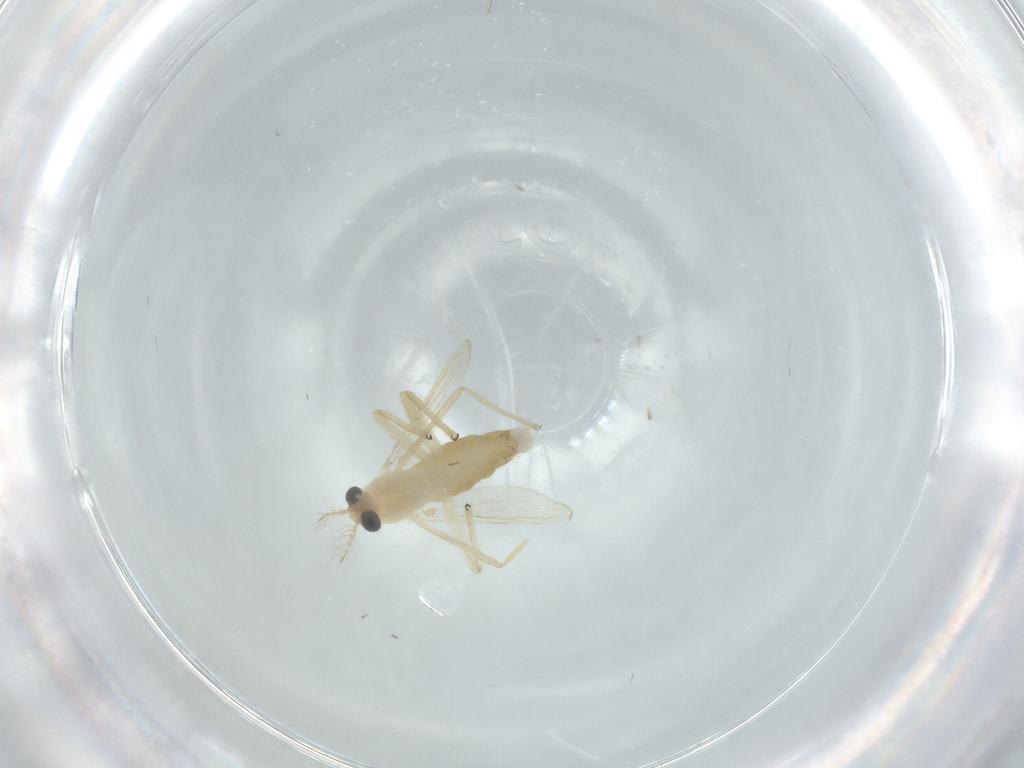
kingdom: Animalia
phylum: Arthropoda
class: Insecta
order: Diptera
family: Chironomidae
